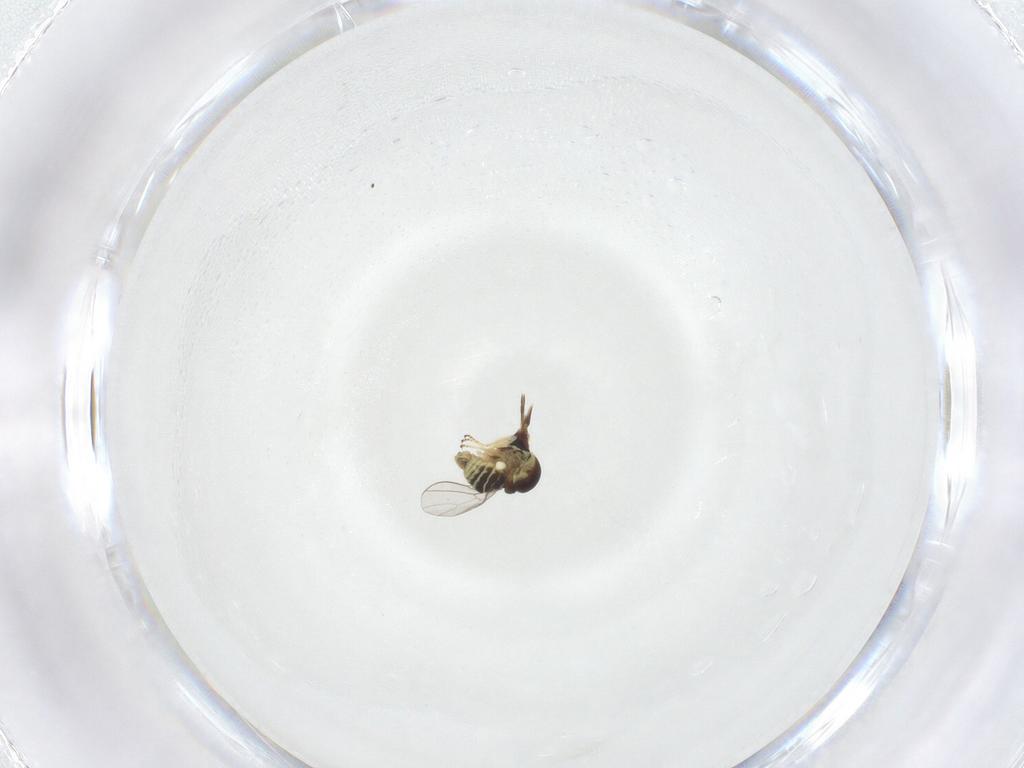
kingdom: Animalia
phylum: Arthropoda
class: Insecta
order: Diptera
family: Mythicomyiidae
